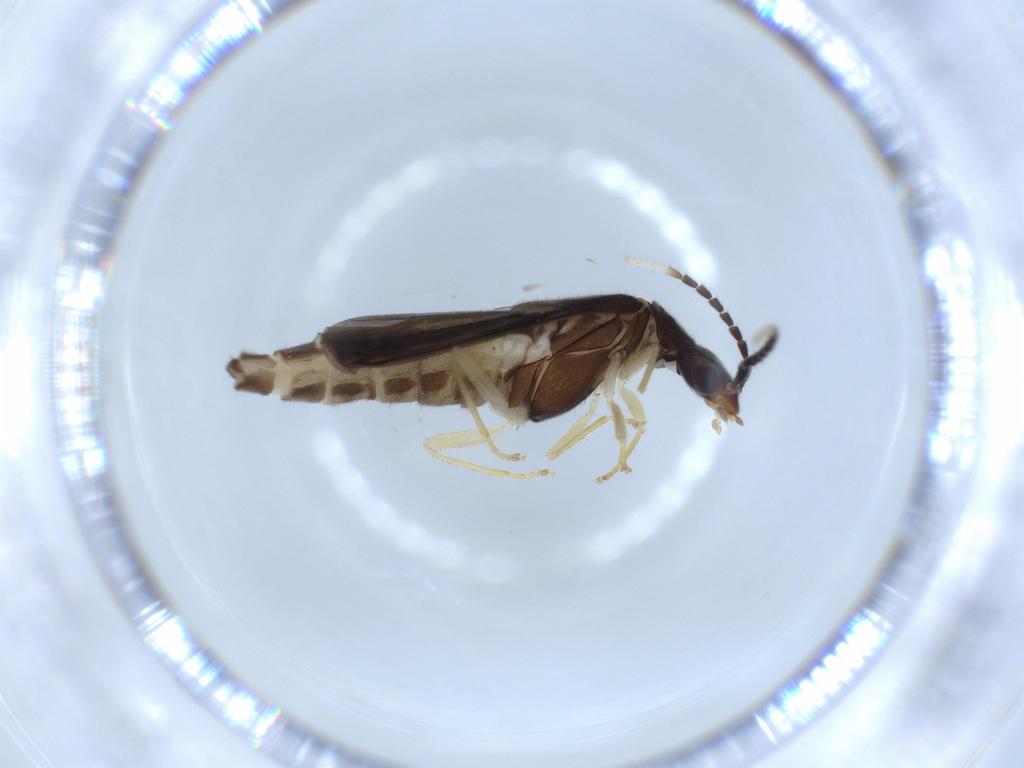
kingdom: Animalia
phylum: Arthropoda
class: Insecta
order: Coleoptera
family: Cantharidae
